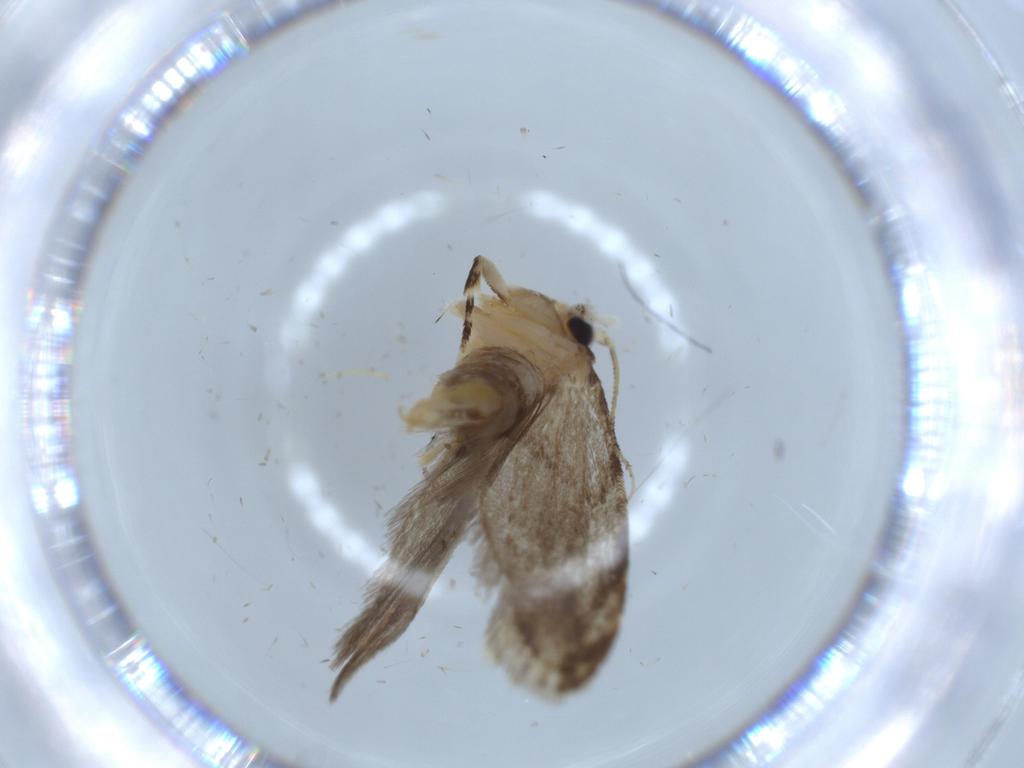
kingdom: Animalia
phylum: Arthropoda
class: Insecta
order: Lepidoptera
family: Tineidae
